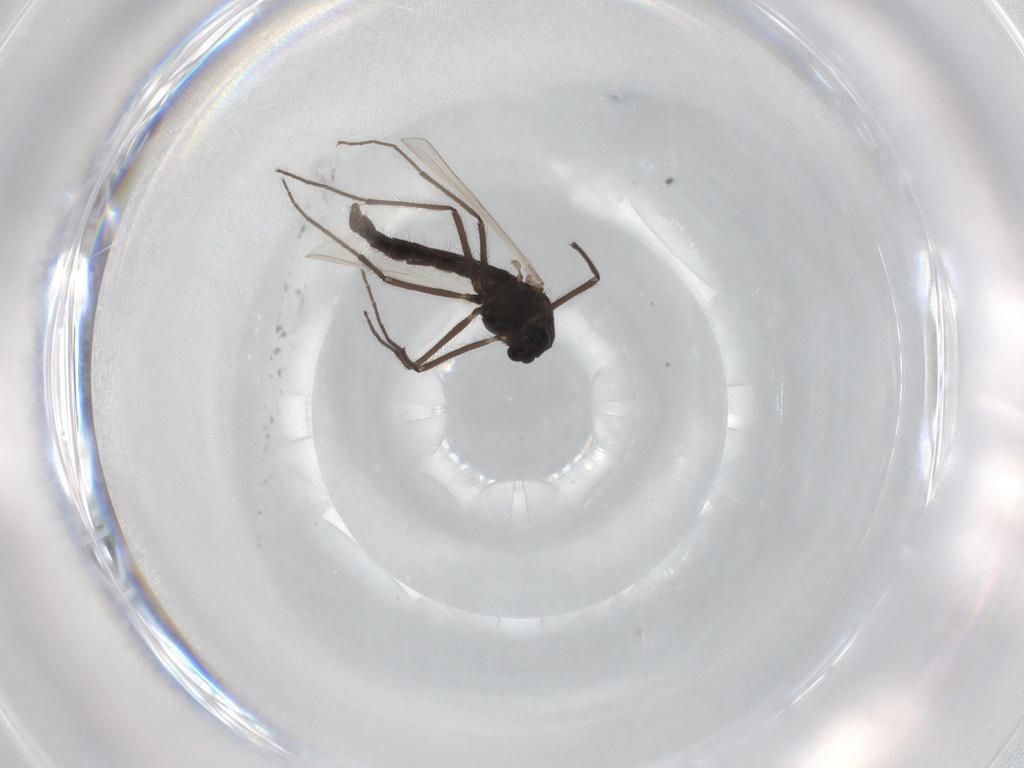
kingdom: Animalia
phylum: Arthropoda
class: Insecta
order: Diptera
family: Chironomidae
